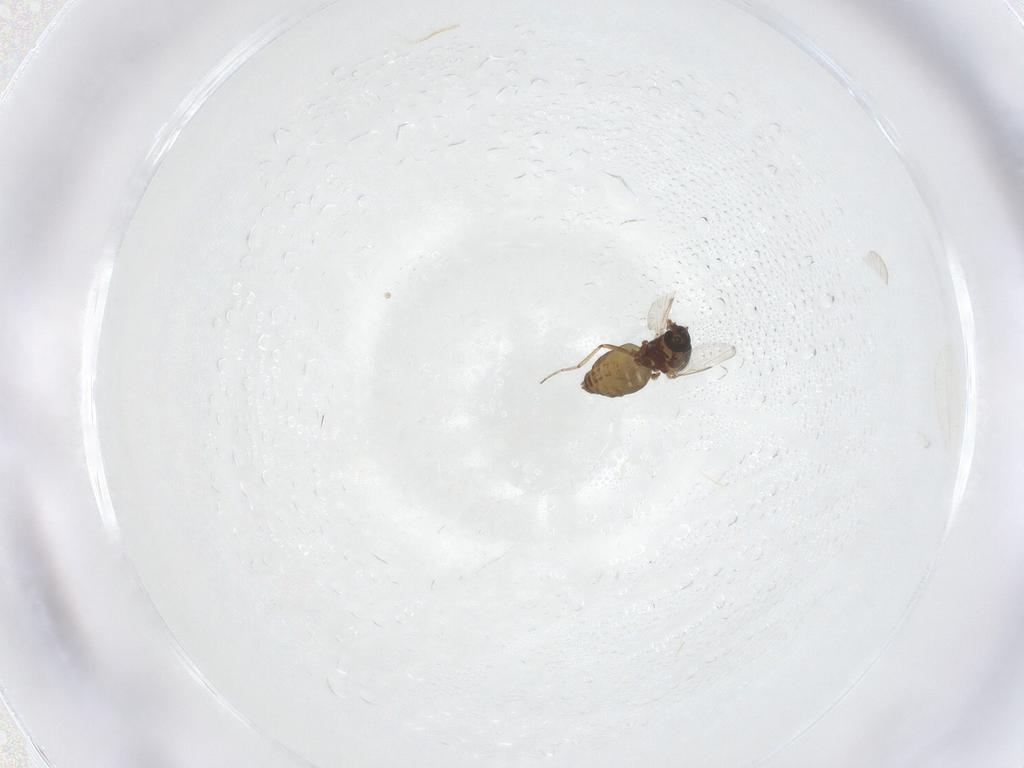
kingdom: Animalia
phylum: Arthropoda
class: Insecta
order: Diptera
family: Ceratopogonidae
